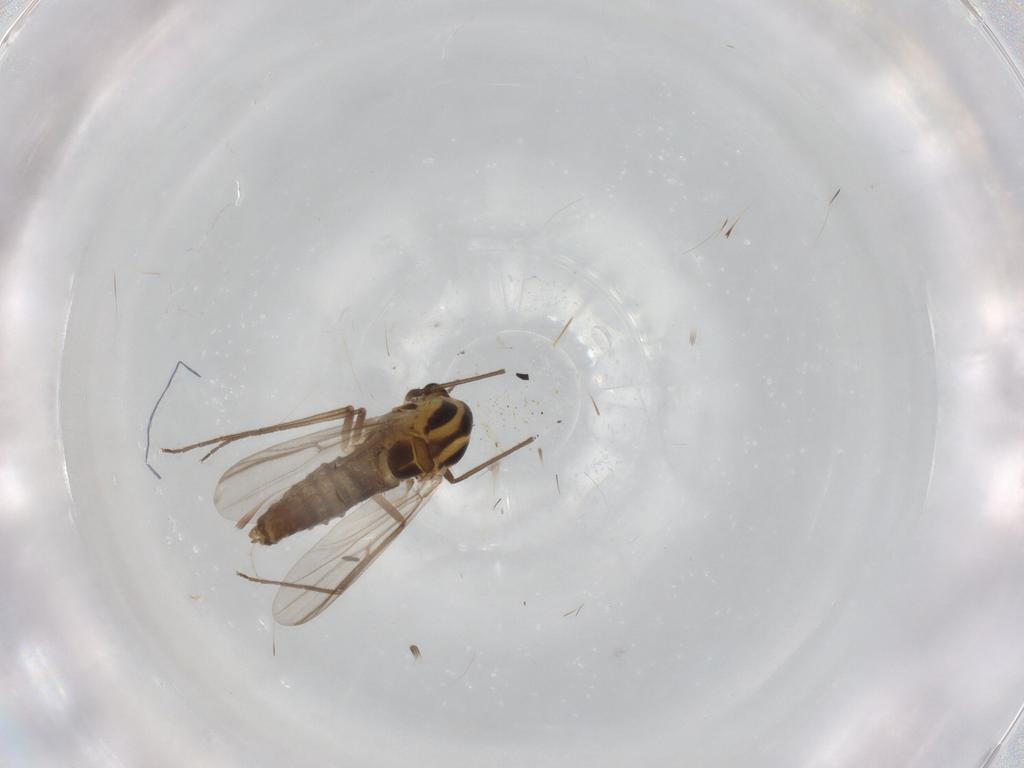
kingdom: Animalia
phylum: Arthropoda
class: Insecta
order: Diptera
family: Chironomidae
